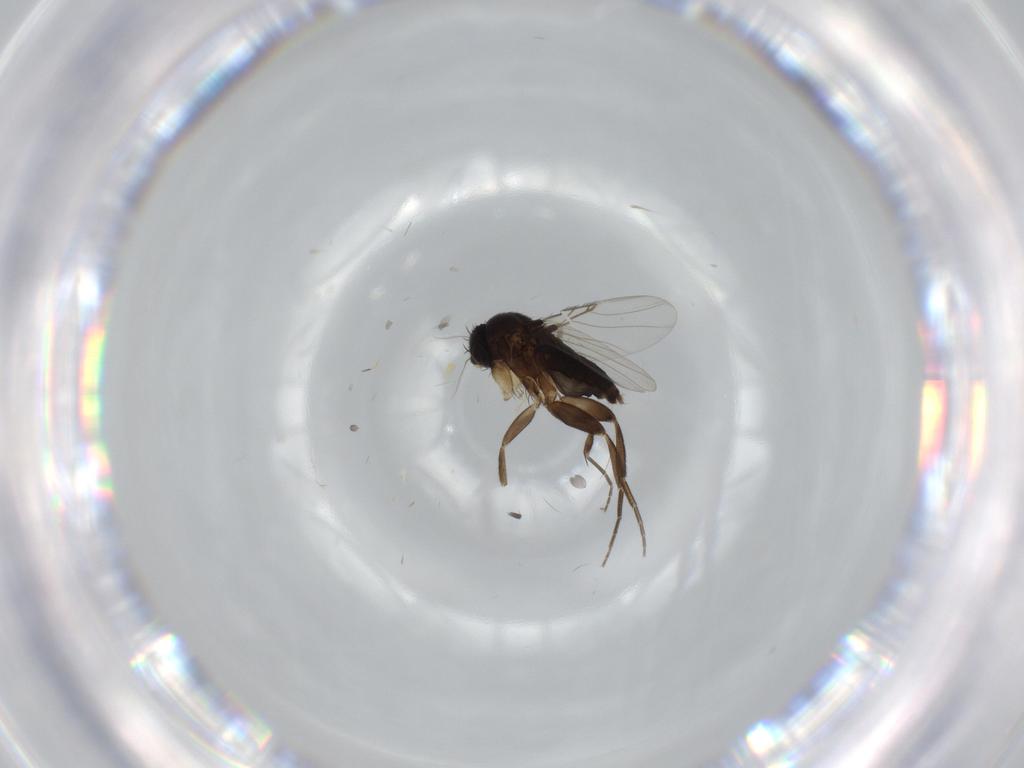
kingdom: Animalia
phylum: Arthropoda
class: Insecta
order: Diptera
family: Phoridae
